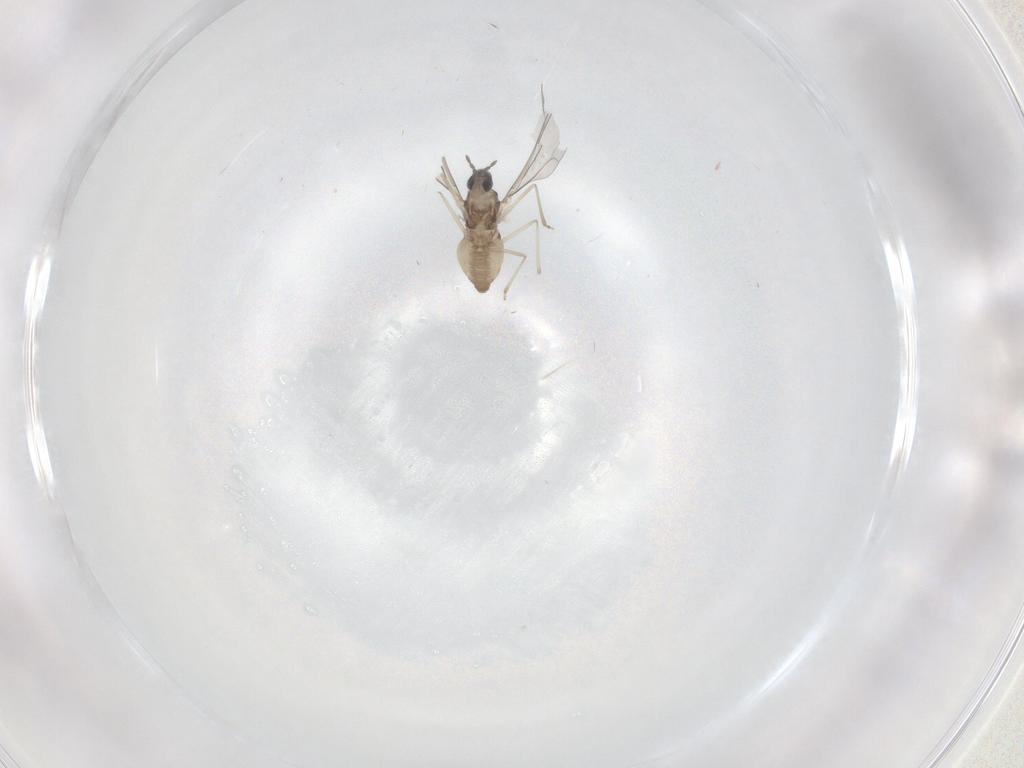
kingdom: Animalia
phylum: Arthropoda
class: Insecta
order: Diptera
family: Cecidomyiidae
